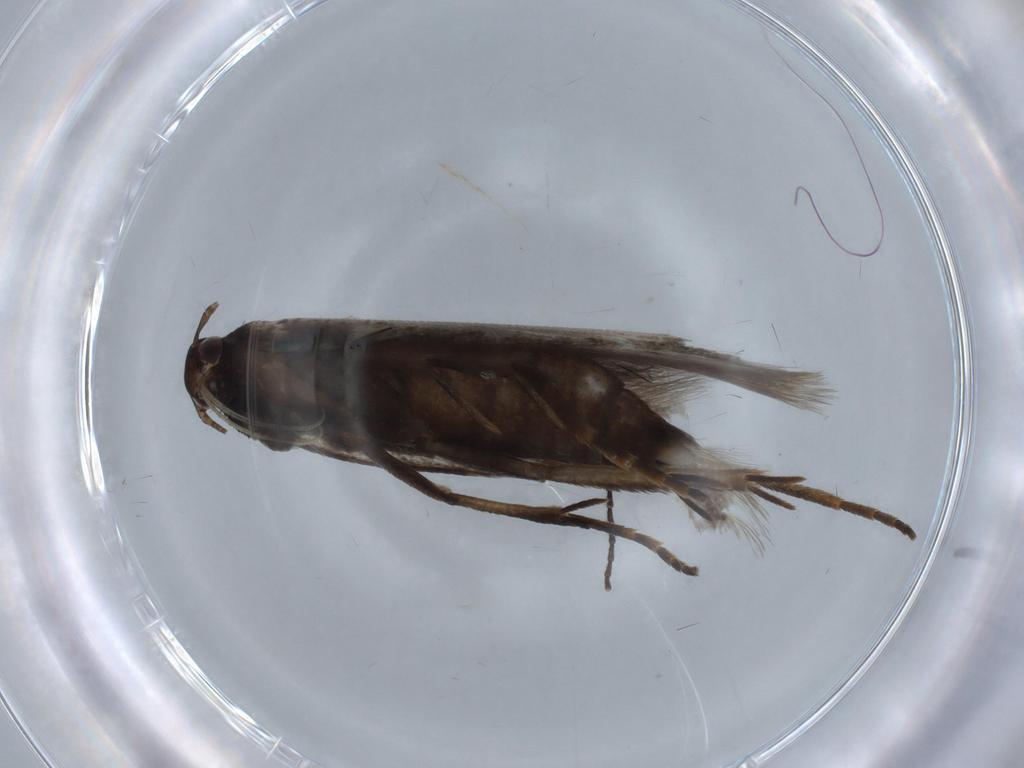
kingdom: Animalia
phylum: Arthropoda
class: Insecta
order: Lepidoptera
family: Gelechiidae
